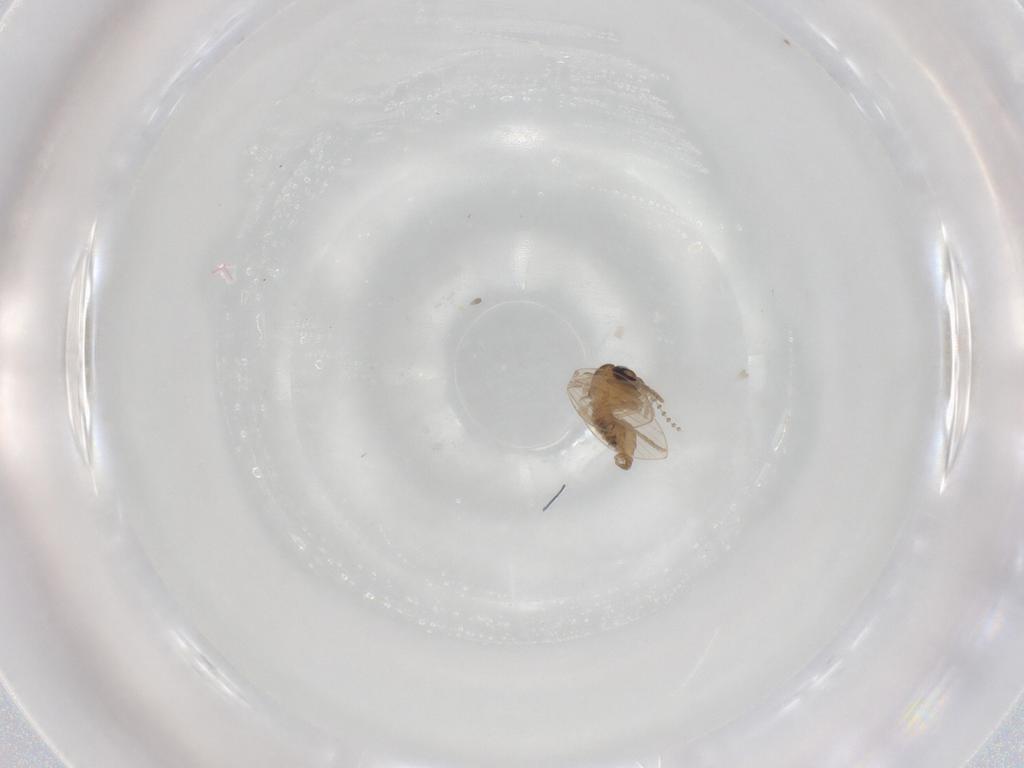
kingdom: Animalia
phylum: Arthropoda
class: Insecta
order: Diptera
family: Psychodidae
